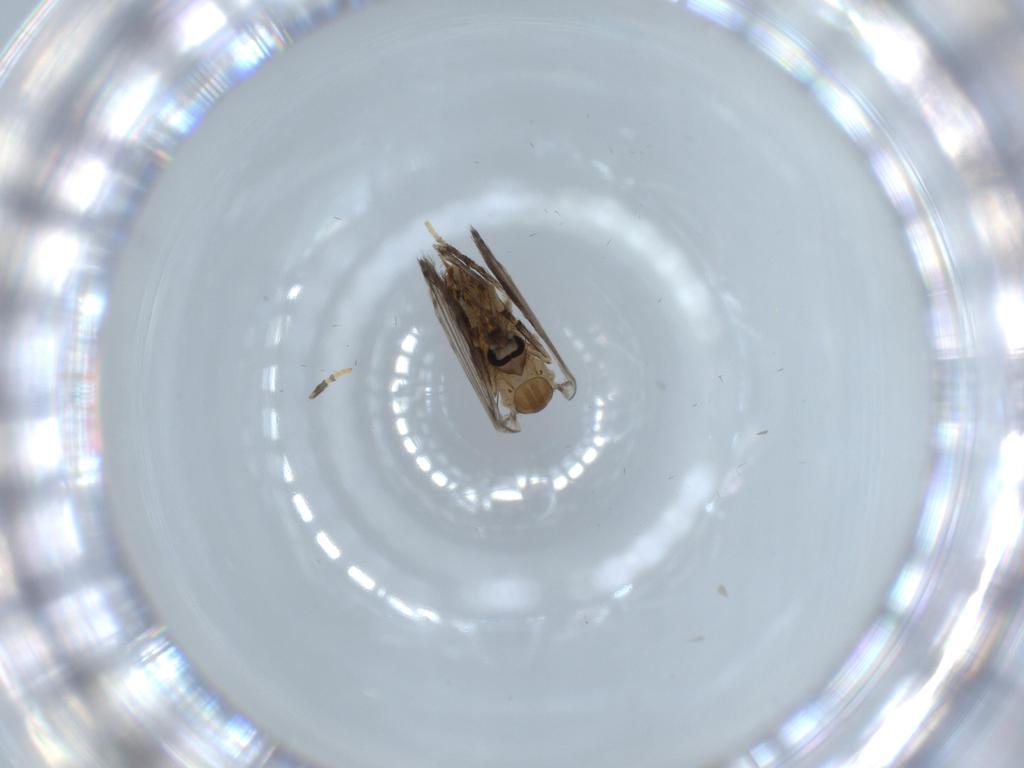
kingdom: Animalia
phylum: Arthropoda
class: Insecta
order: Diptera
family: Psychodidae
